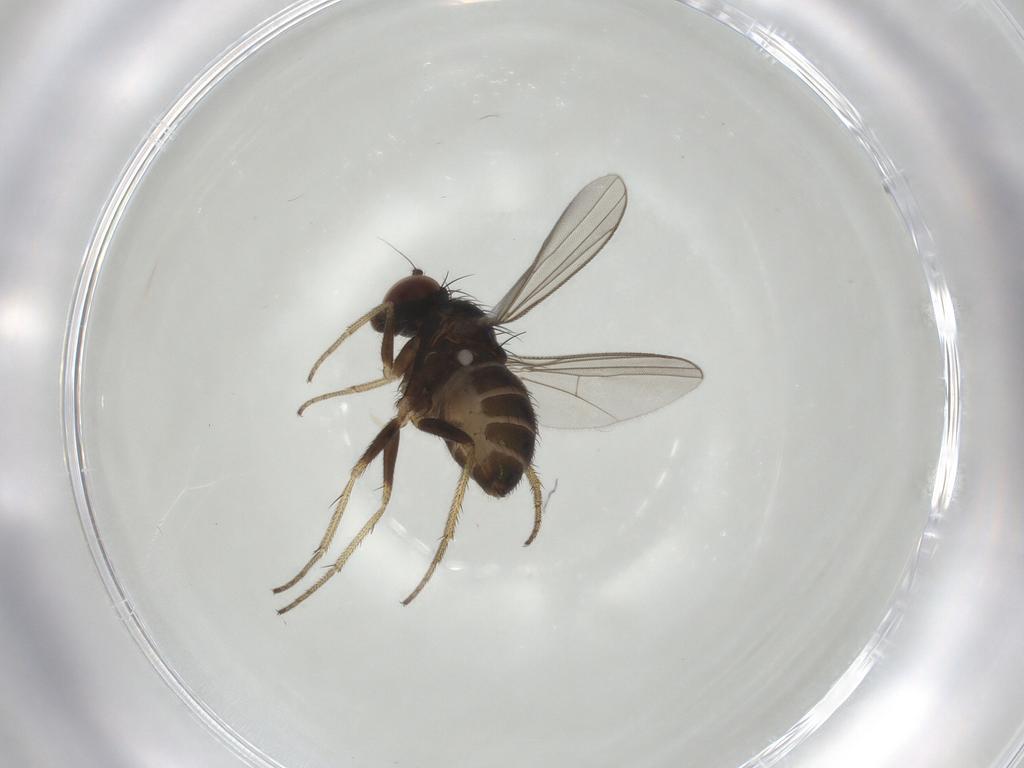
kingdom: Animalia
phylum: Arthropoda
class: Insecta
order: Diptera
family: Dolichopodidae
